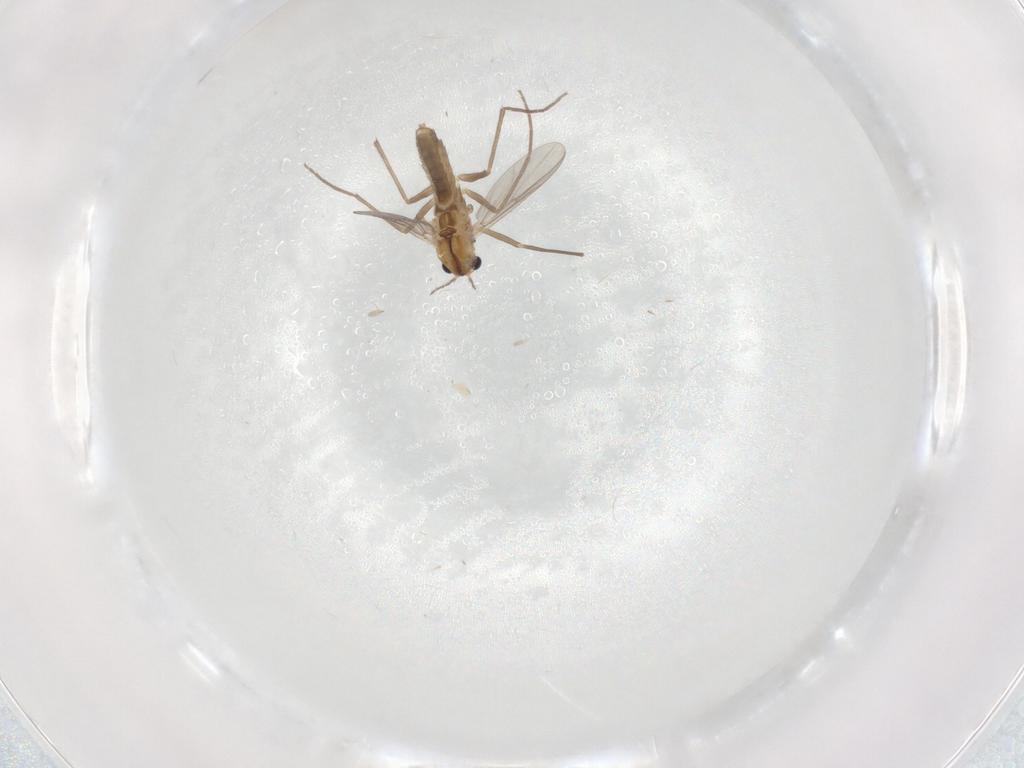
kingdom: Animalia
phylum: Arthropoda
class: Insecta
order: Diptera
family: Chironomidae
